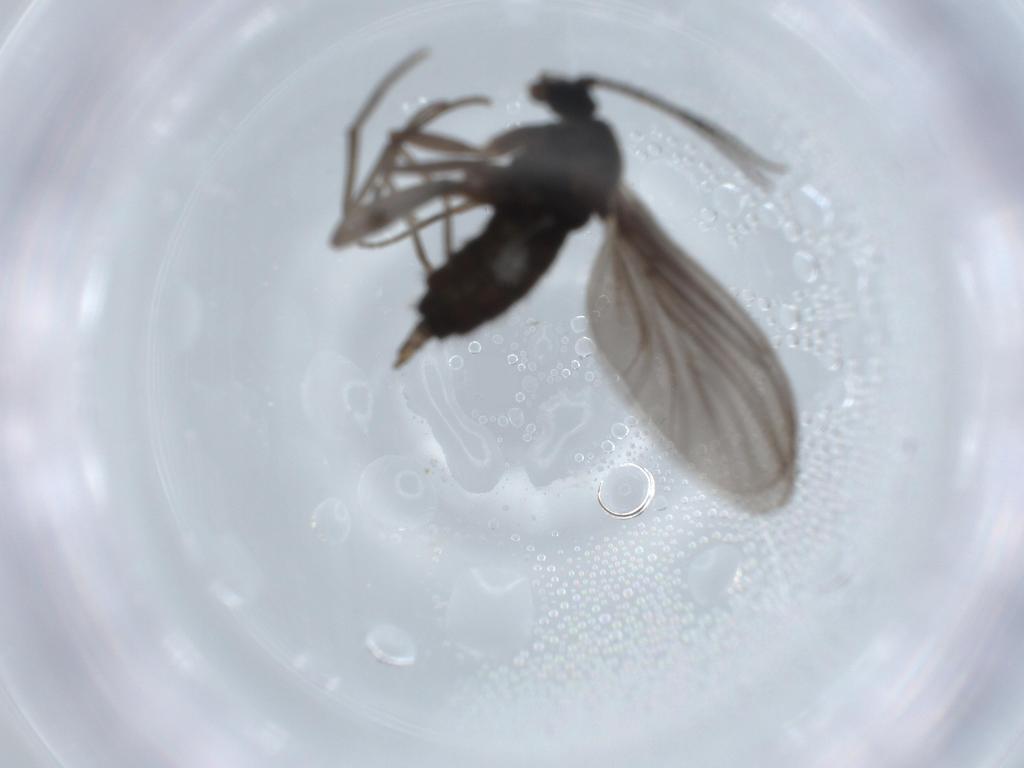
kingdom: Animalia
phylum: Arthropoda
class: Insecta
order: Diptera
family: Sciaridae
